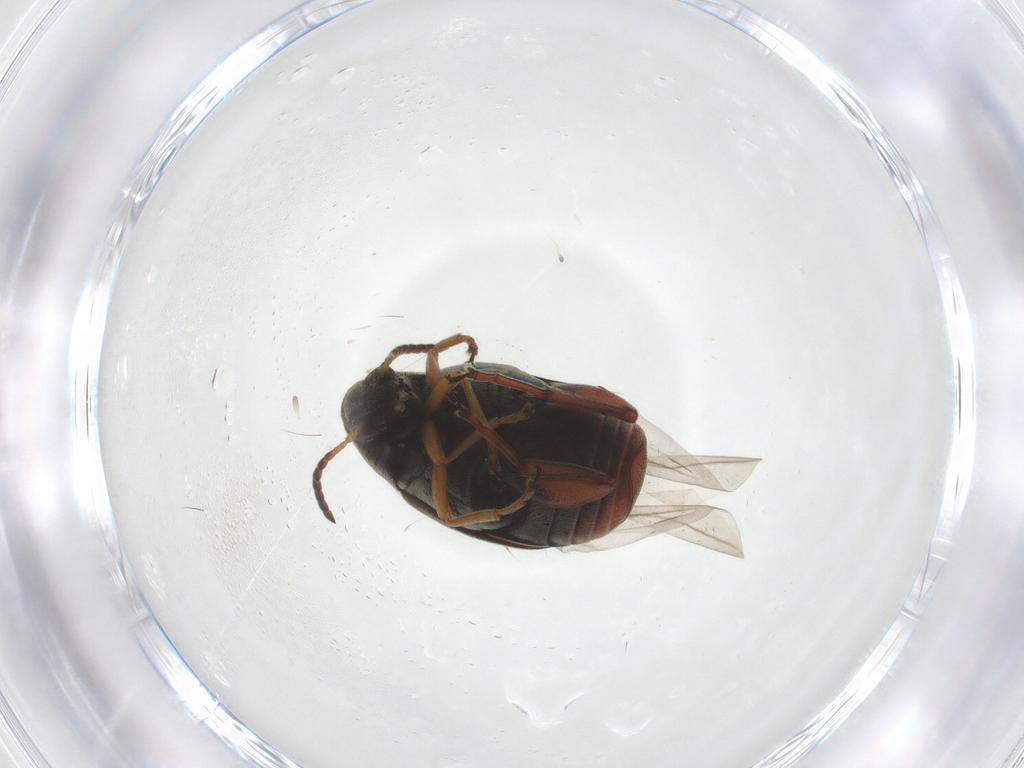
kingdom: Animalia
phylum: Arthropoda
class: Insecta
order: Coleoptera
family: Chrysomelidae
